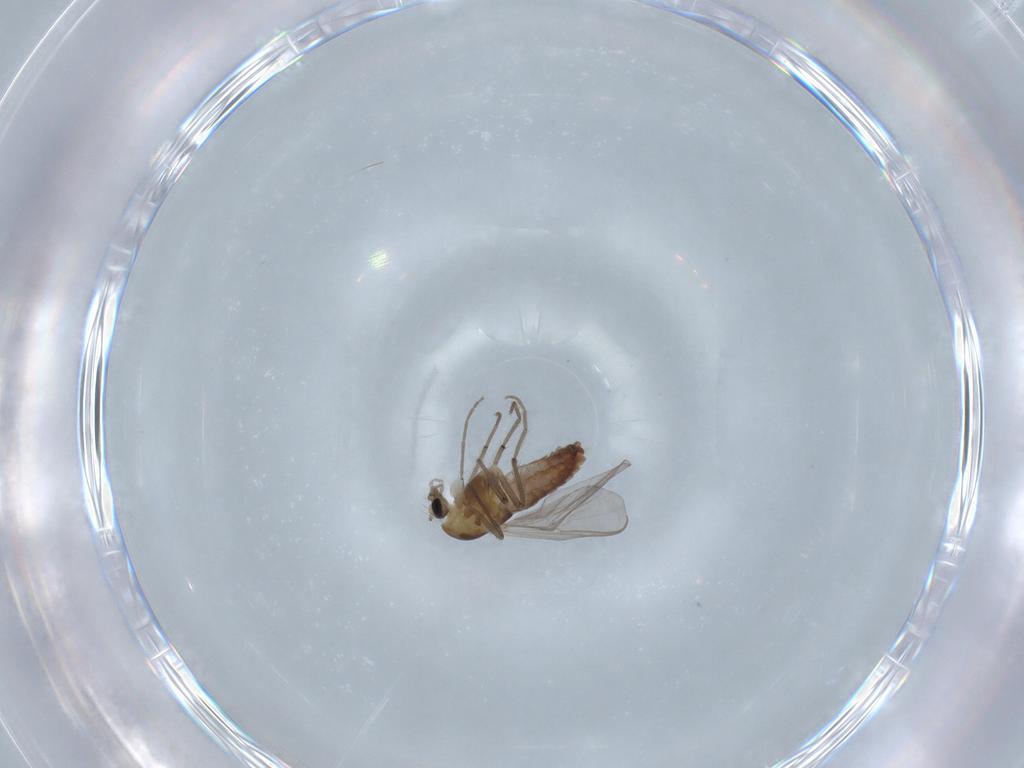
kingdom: Animalia
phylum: Arthropoda
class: Insecta
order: Diptera
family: Chironomidae
